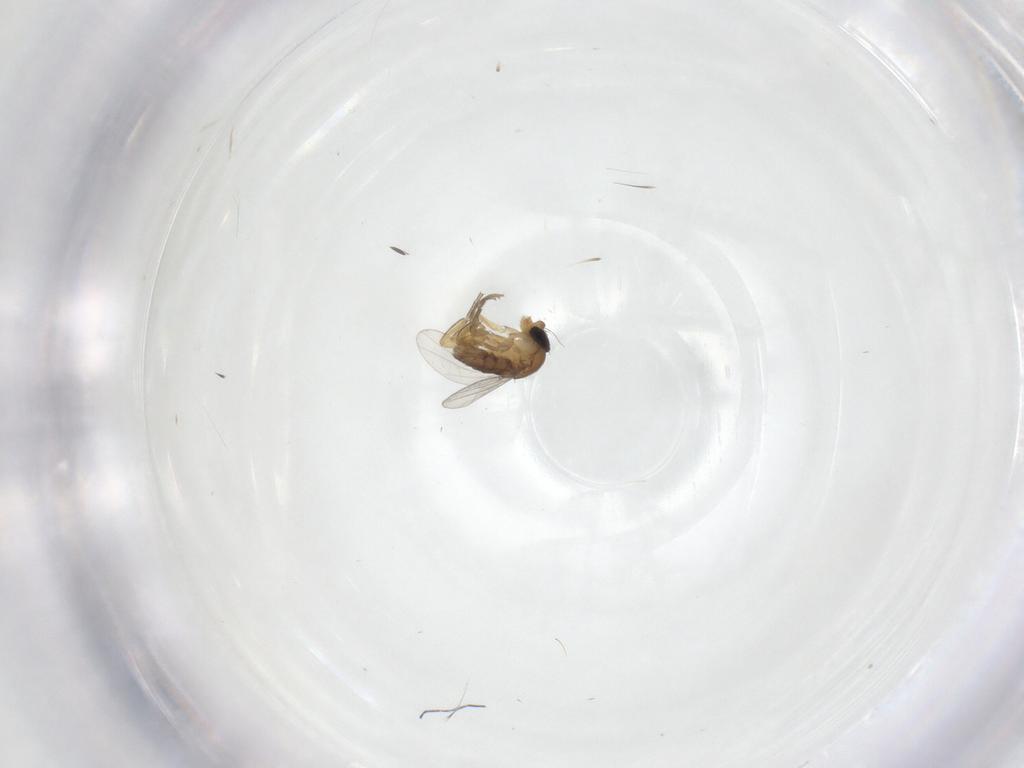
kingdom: Animalia
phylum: Arthropoda
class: Insecta
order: Diptera
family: Phoridae
